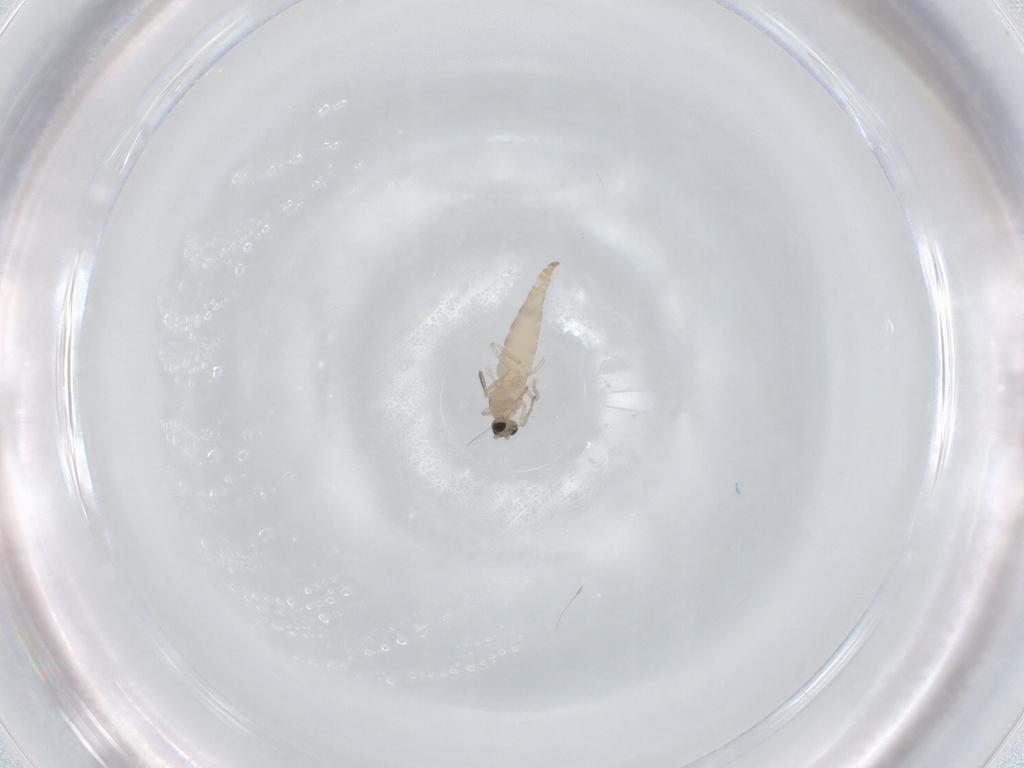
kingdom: Animalia
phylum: Arthropoda
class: Insecta
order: Diptera
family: Cecidomyiidae
